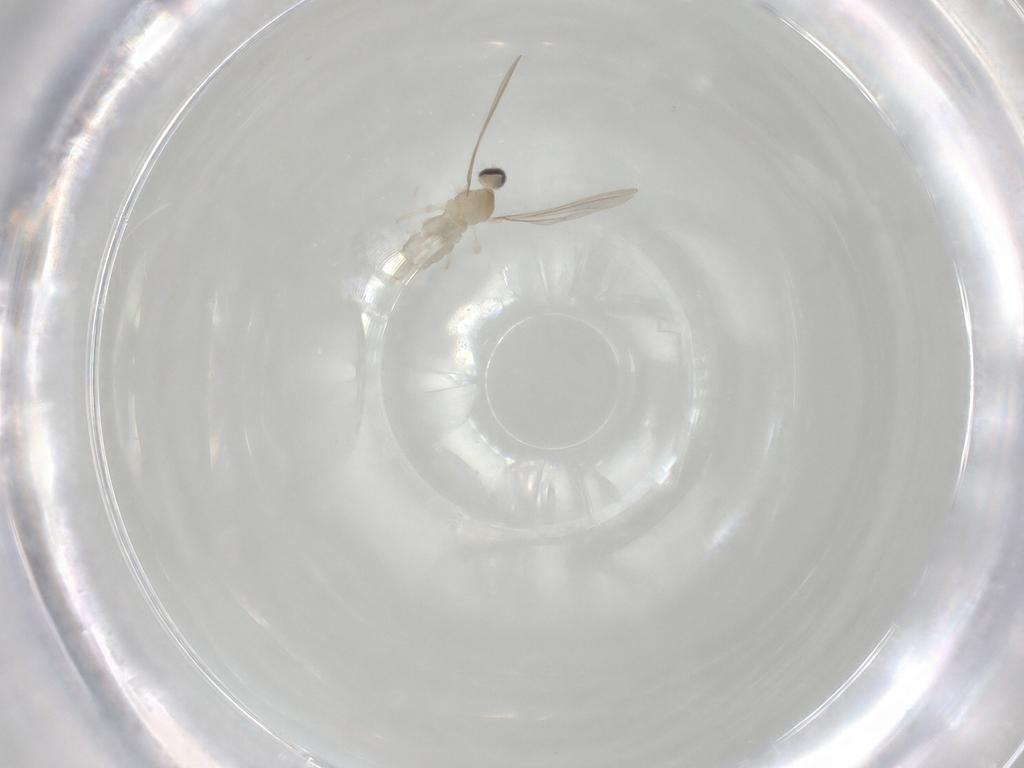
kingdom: Animalia
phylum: Arthropoda
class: Insecta
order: Diptera
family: Cecidomyiidae
